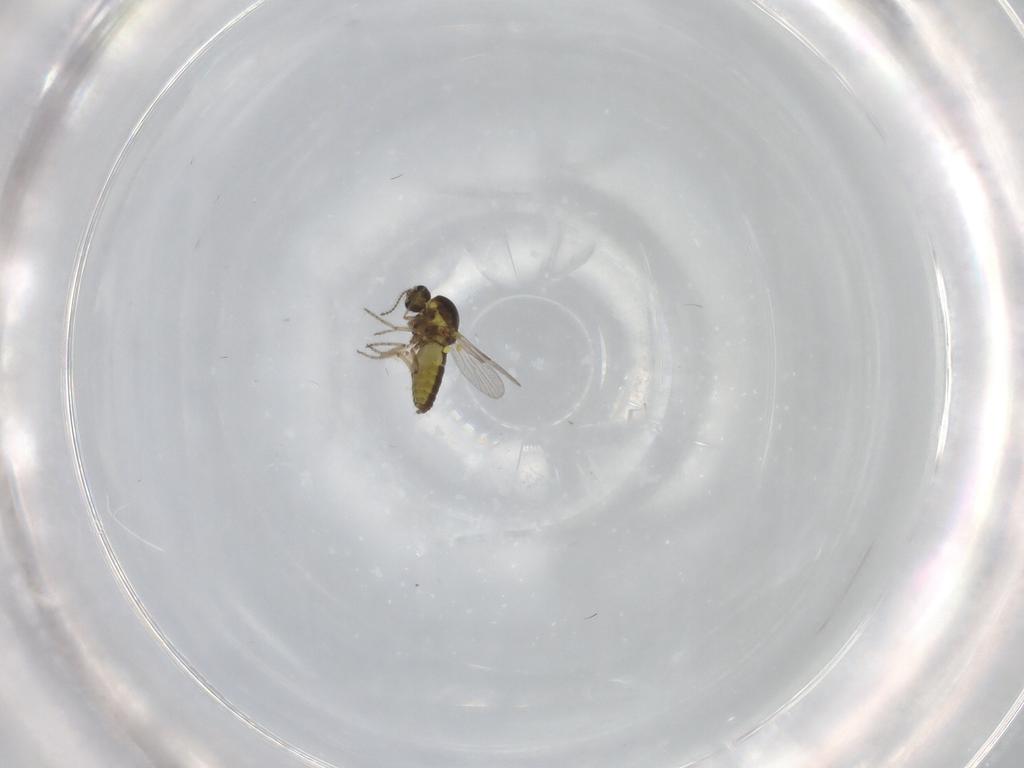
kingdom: Animalia
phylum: Arthropoda
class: Insecta
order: Diptera
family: Ceratopogonidae
